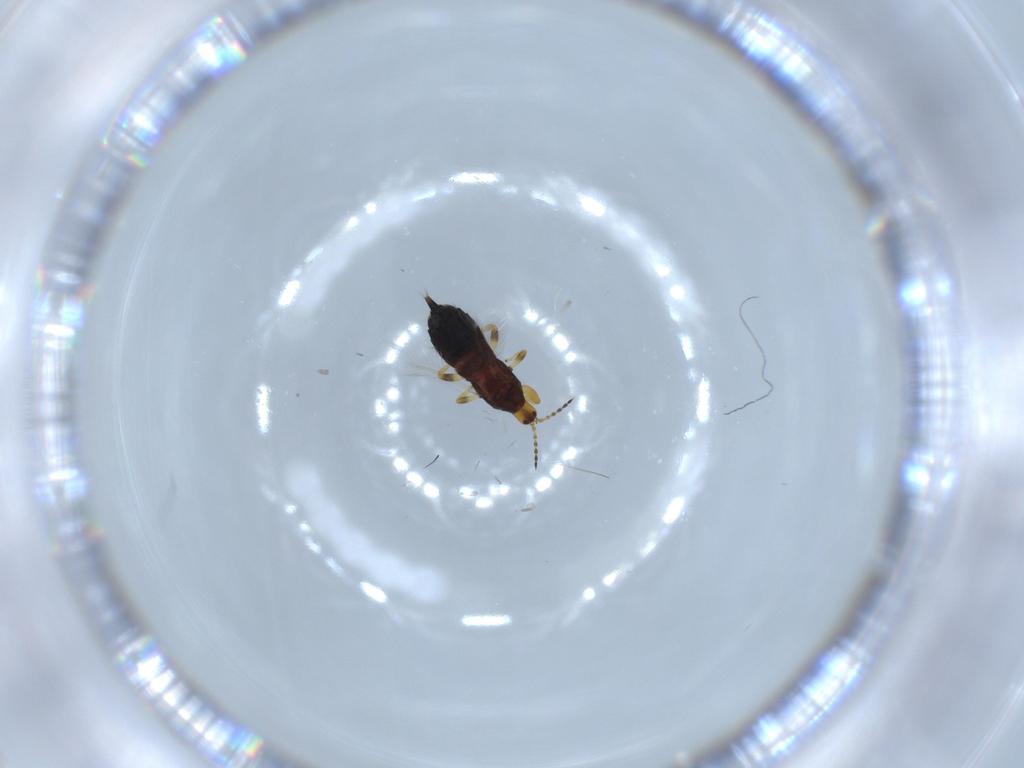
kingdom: Animalia
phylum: Arthropoda
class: Insecta
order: Thysanoptera
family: Phlaeothripidae
